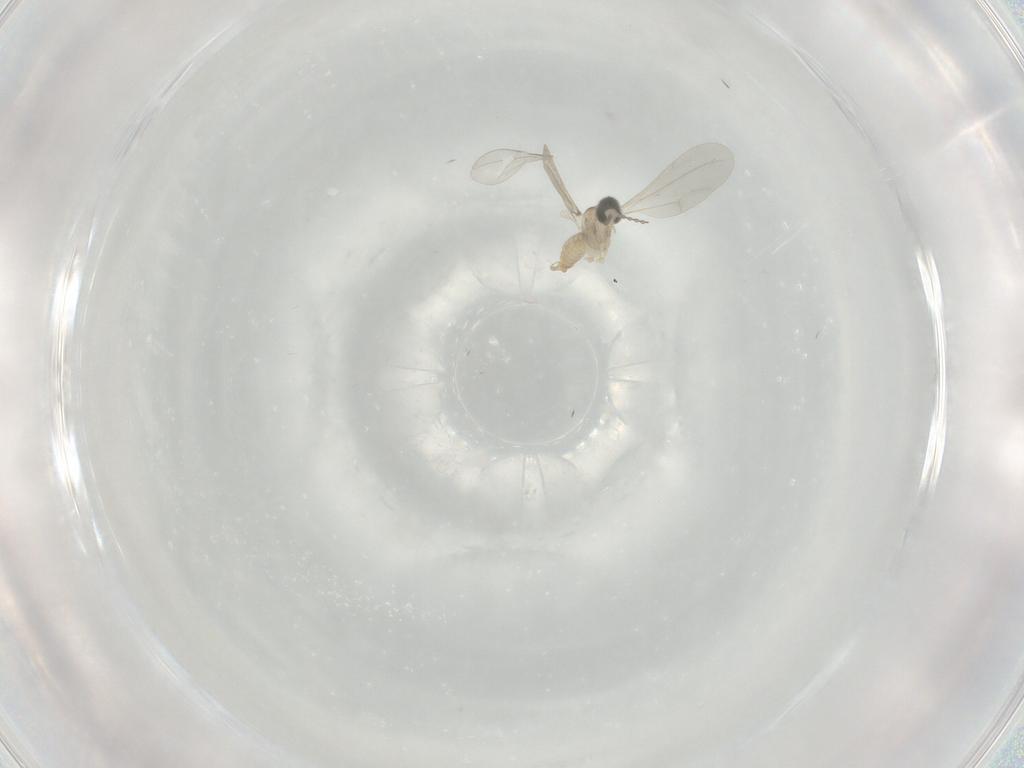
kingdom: Animalia
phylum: Arthropoda
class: Insecta
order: Diptera
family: Cecidomyiidae
